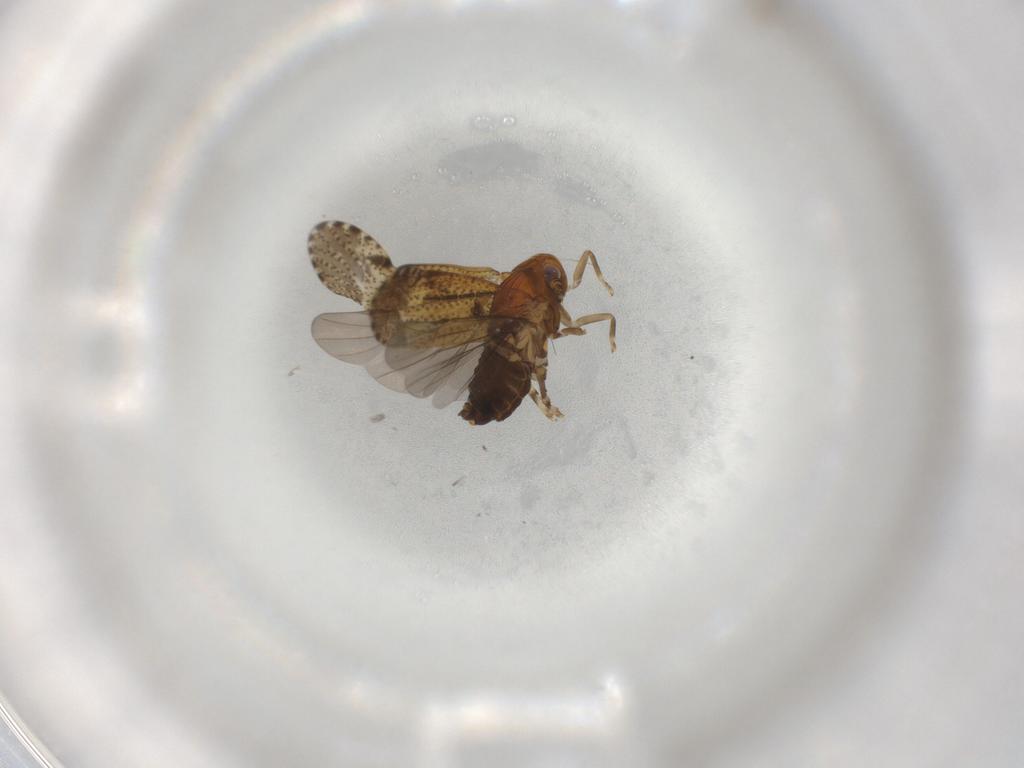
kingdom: Animalia
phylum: Arthropoda
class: Insecta
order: Hemiptera
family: Delphacidae
